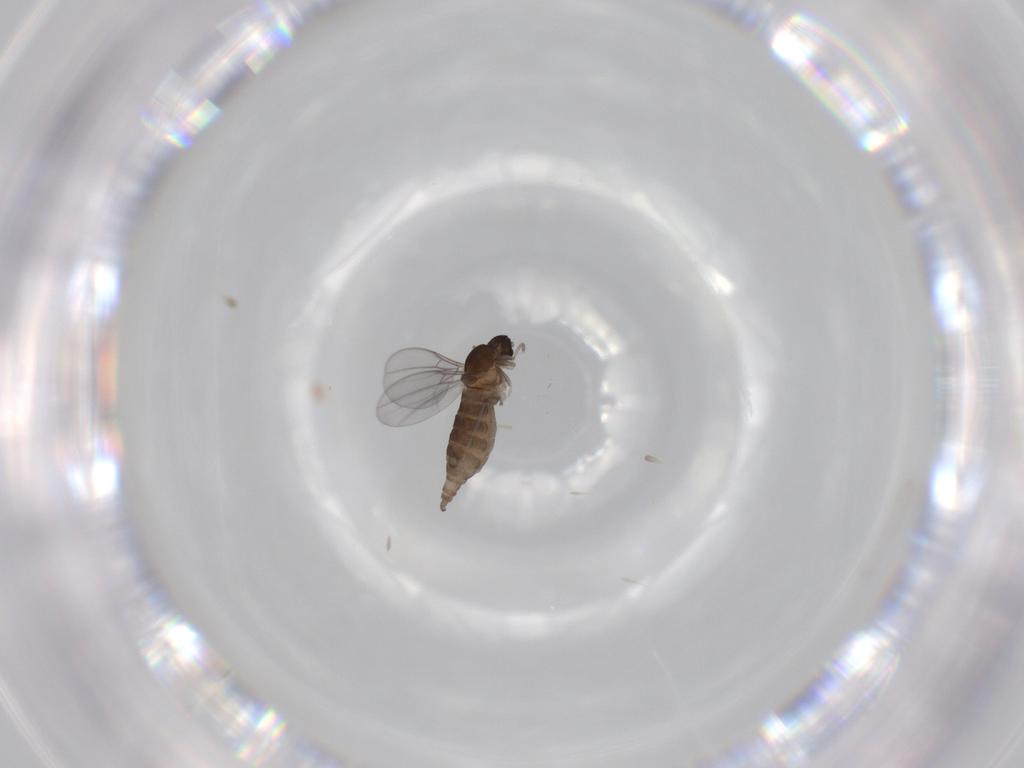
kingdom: Animalia
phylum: Arthropoda
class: Insecta
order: Diptera
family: Cecidomyiidae
